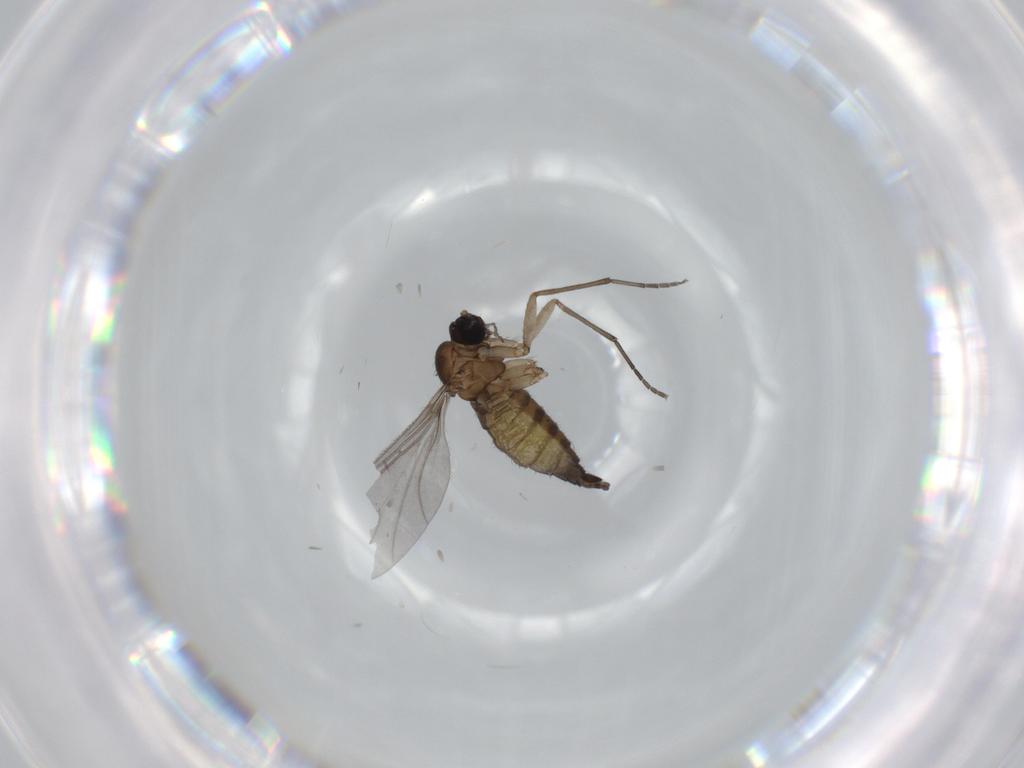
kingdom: Animalia
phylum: Arthropoda
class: Insecta
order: Diptera
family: Sciaridae
